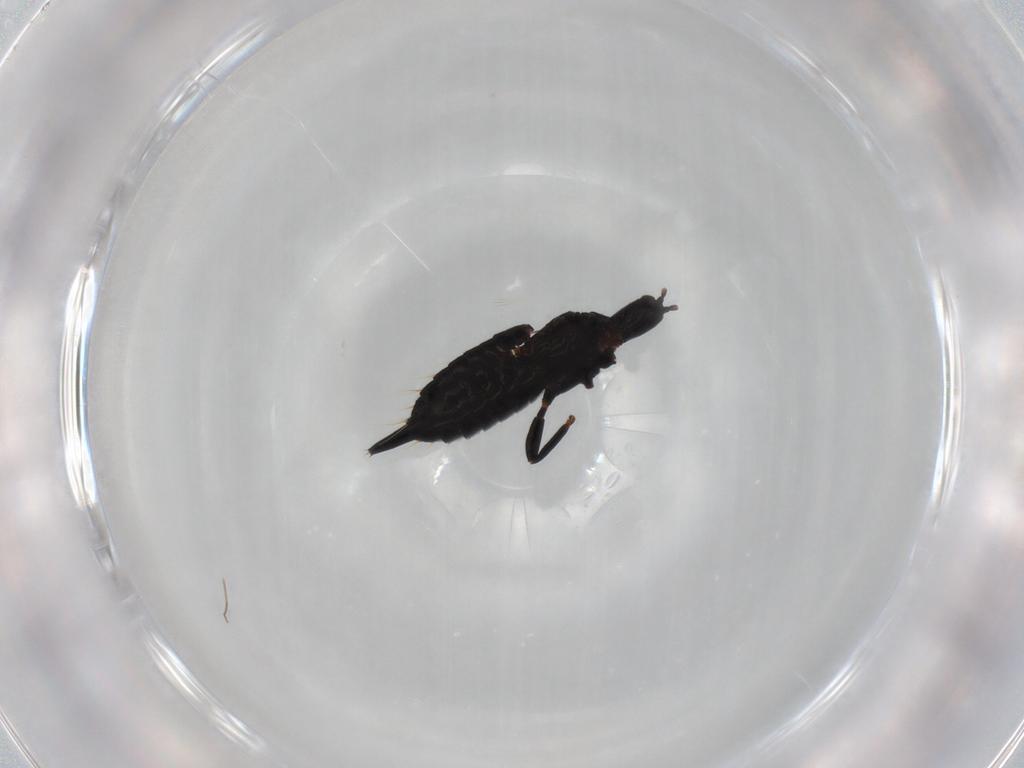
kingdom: Animalia
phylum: Arthropoda
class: Insecta
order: Thysanoptera
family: Phlaeothripidae
